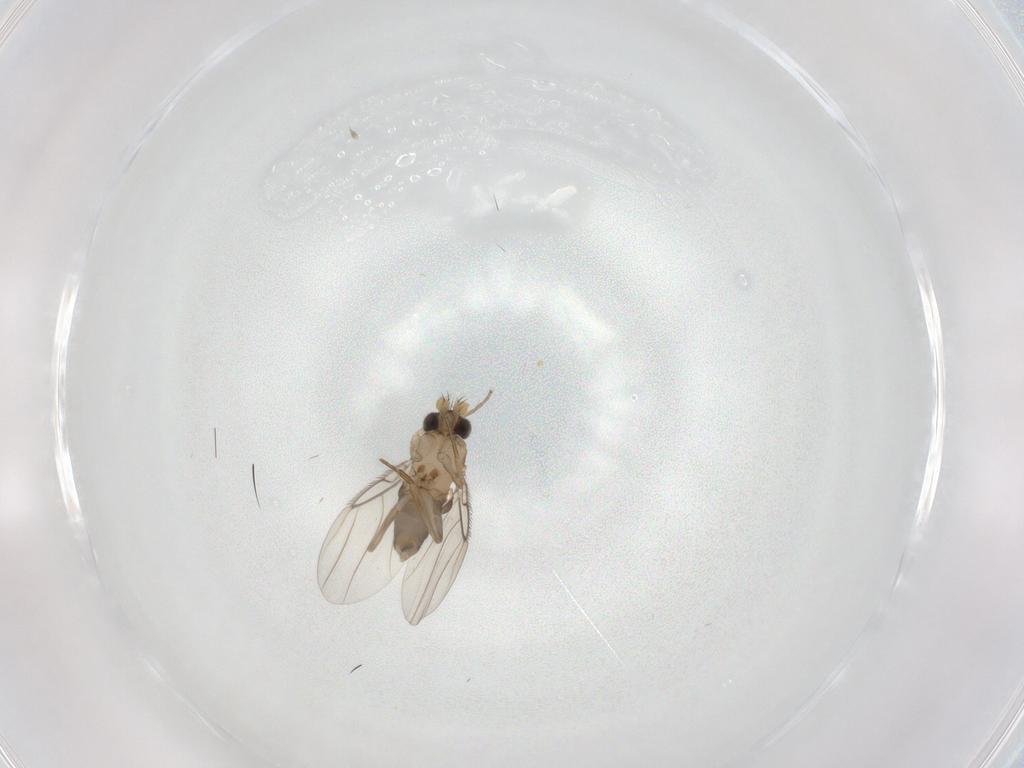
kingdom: Animalia
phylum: Arthropoda
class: Insecta
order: Diptera
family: Phoridae
